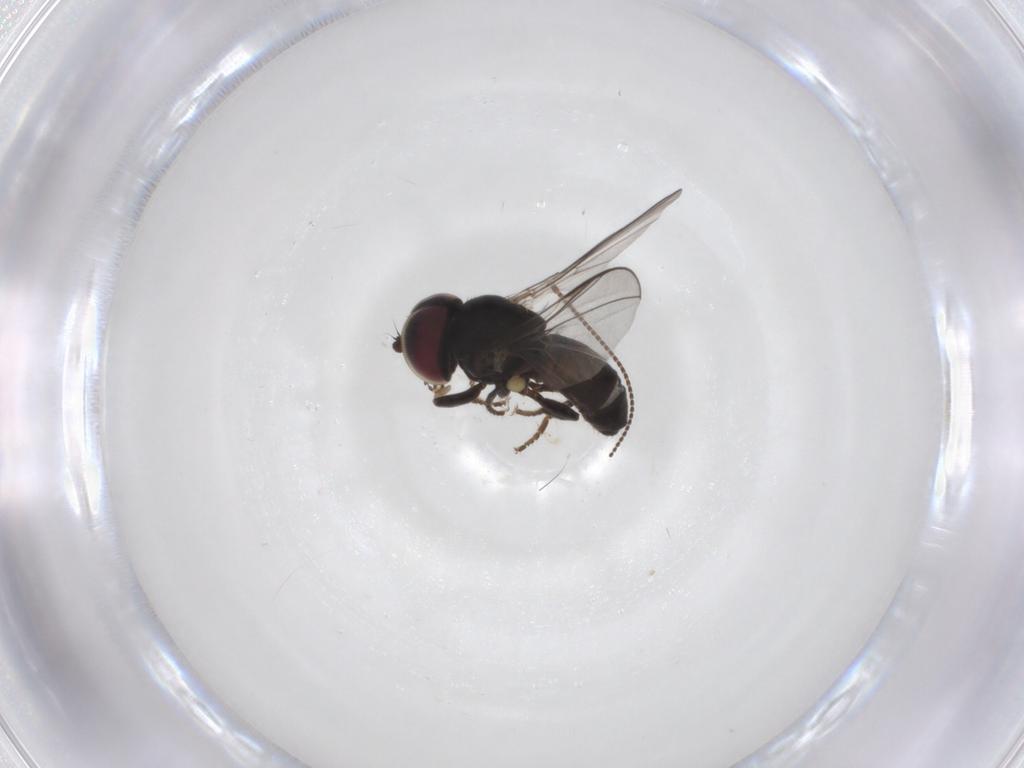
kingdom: Animalia
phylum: Arthropoda
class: Insecta
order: Diptera
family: Pipunculidae
